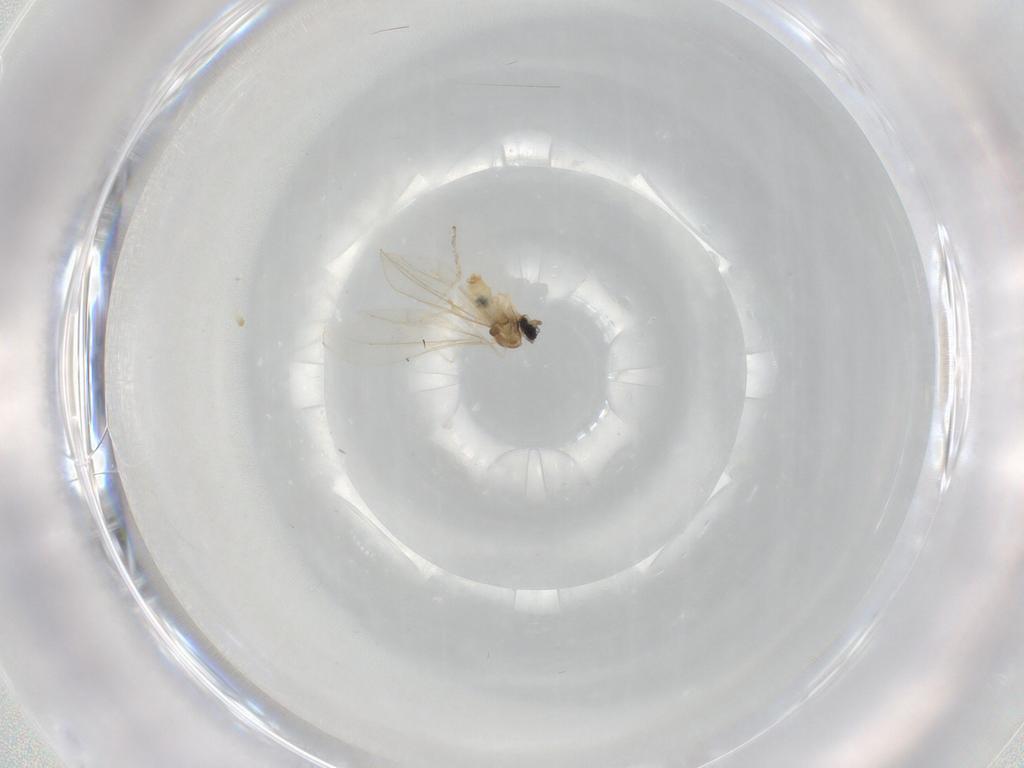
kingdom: Animalia
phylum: Arthropoda
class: Insecta
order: Diptera
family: Cecidomyiidae
